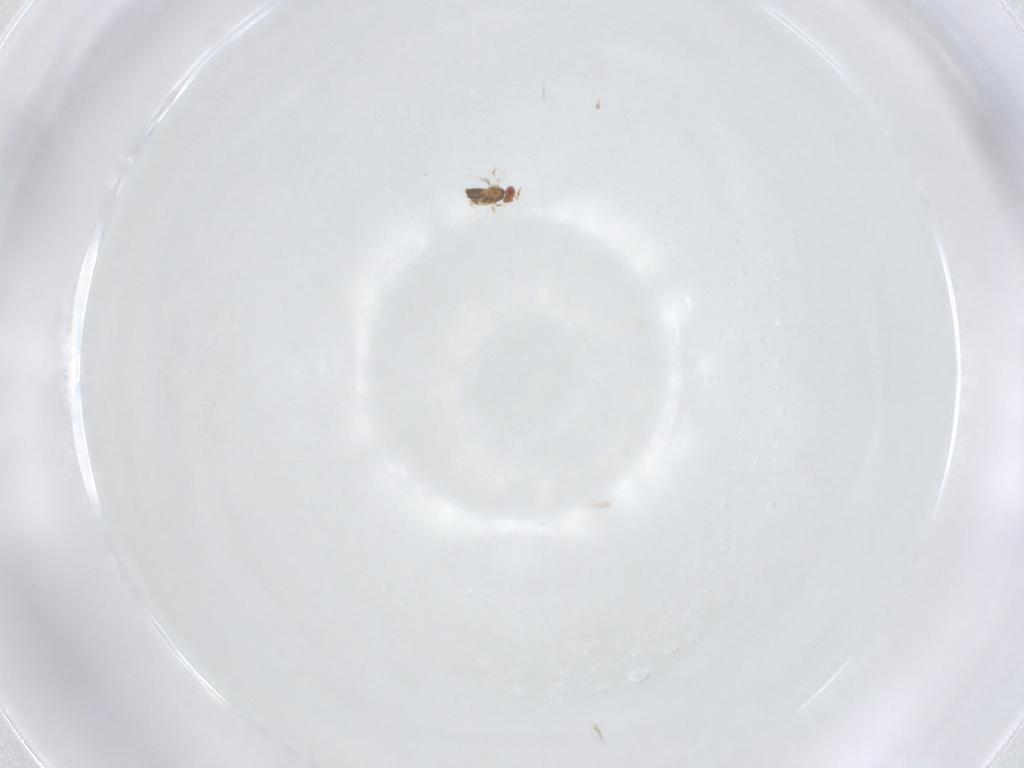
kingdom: Animalia
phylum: Arthropoda
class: Insecta
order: Hymenoptera
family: Trichogrammatidae
